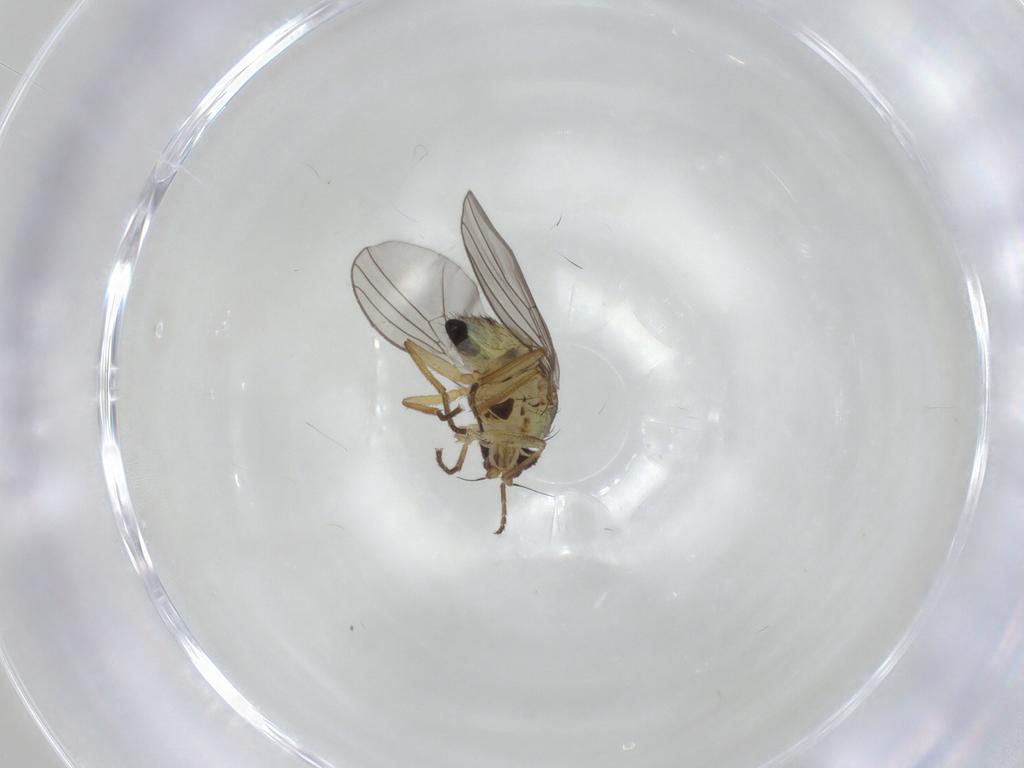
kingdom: Animalia
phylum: Arthropoda
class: Insecta
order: Diptera
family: Agromyzidae
